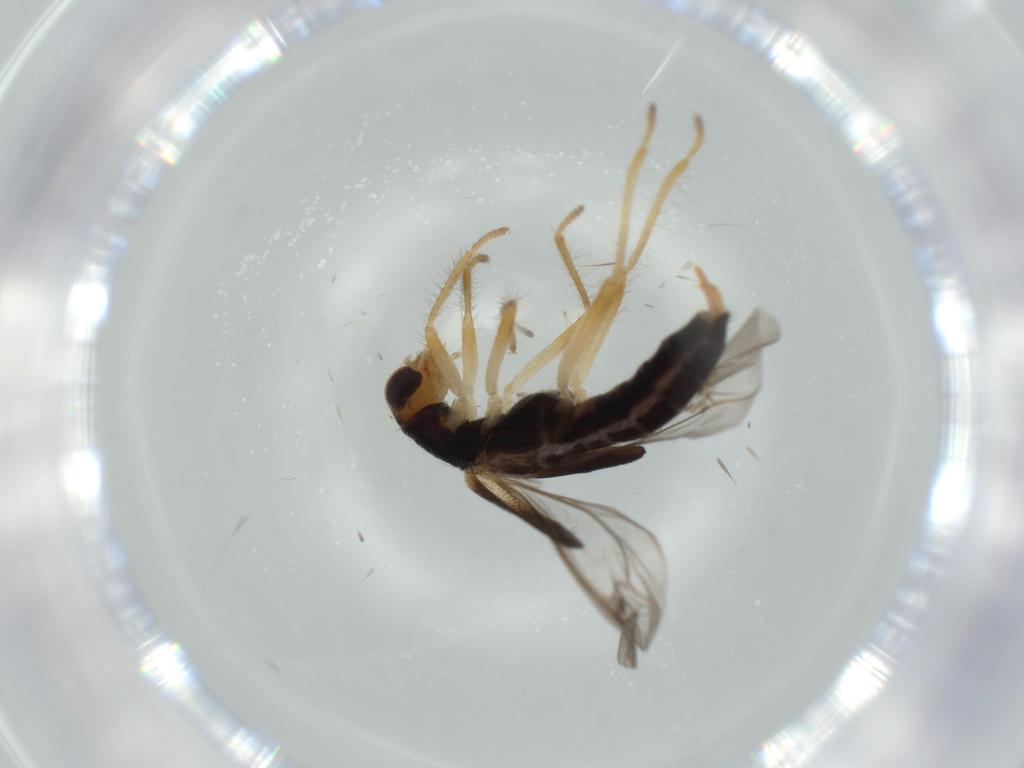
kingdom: Animalia
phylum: Arthropoda
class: Insecta
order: Coleoptera
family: Cleridae
